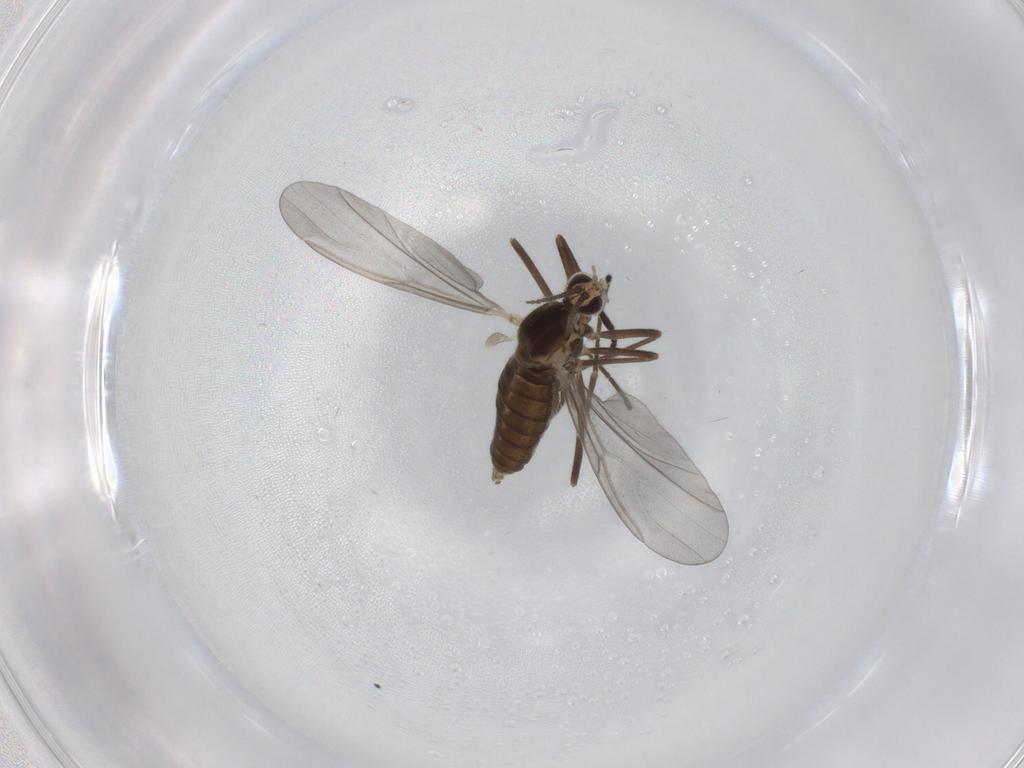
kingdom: Animalia
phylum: Arthropoda
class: Insecta
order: Diptera
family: Cecidomyiidae
